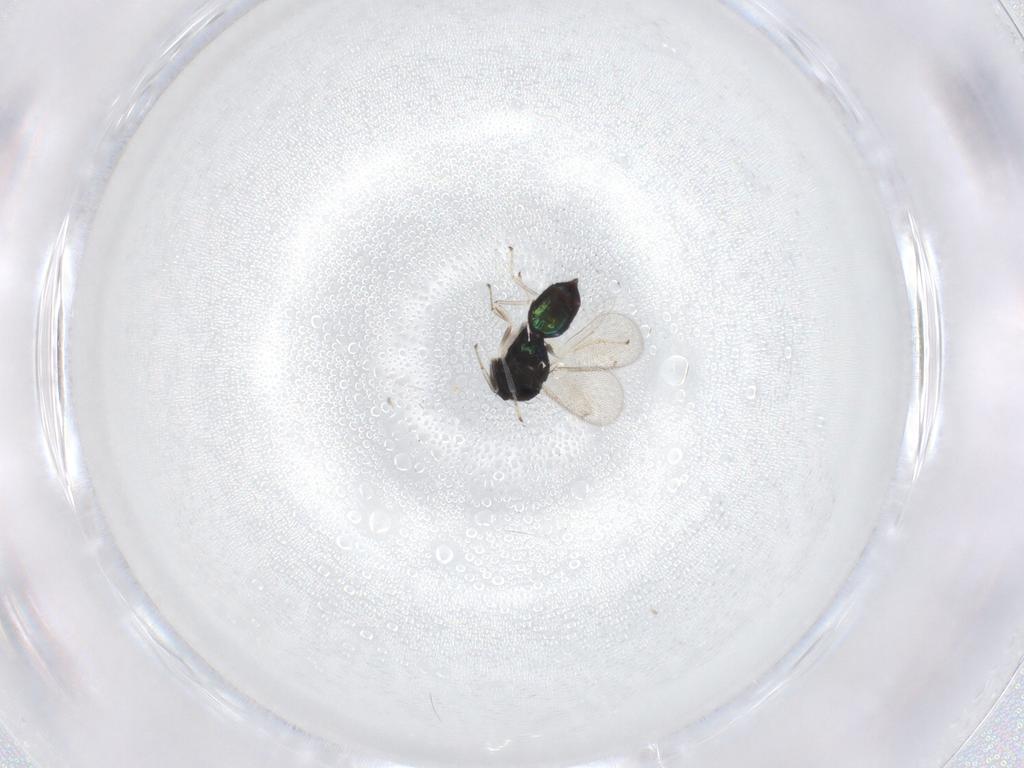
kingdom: Animalia
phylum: Arthropoda
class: Insecta
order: Hymenoptera
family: Eulophidae
